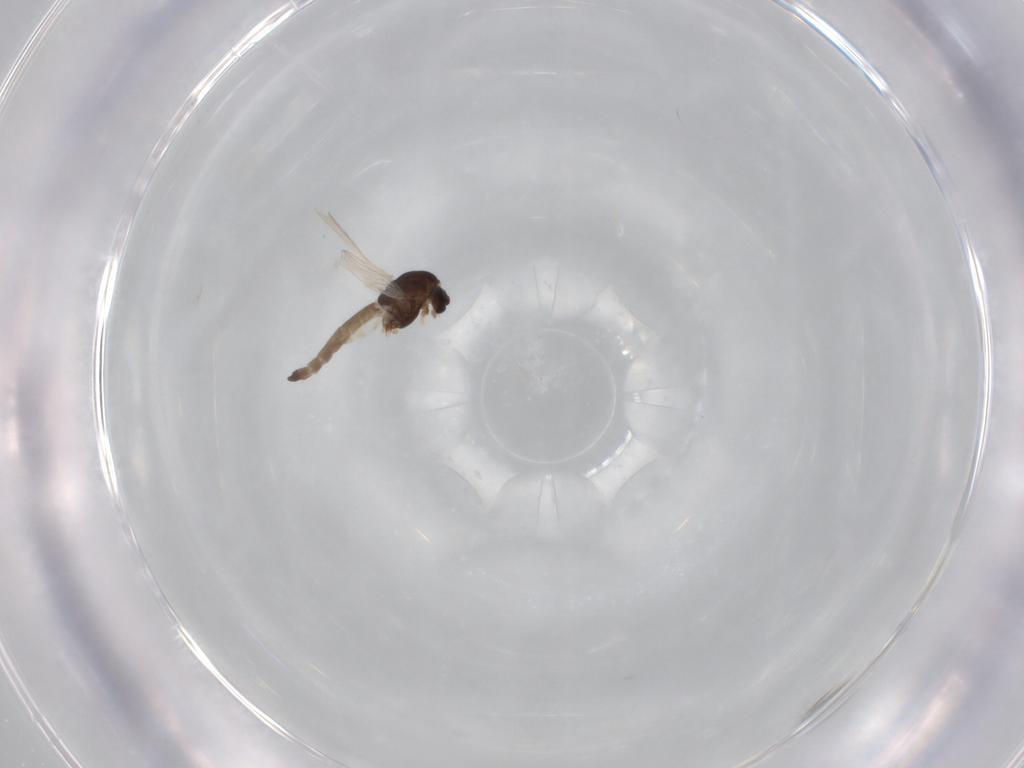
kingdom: Animalia
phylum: Arthropoda
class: Insecta
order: Diptera
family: Chironomidae
